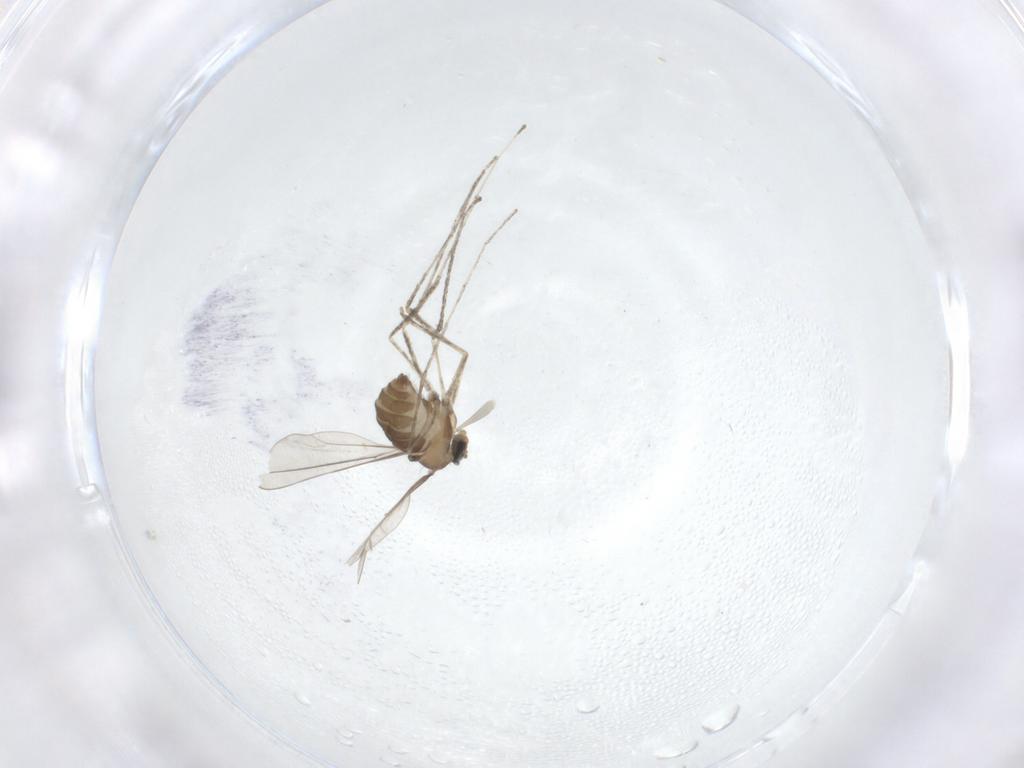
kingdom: Animalia
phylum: Arthropoda
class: Insecta
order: Diptera
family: Cecidomyiidae
